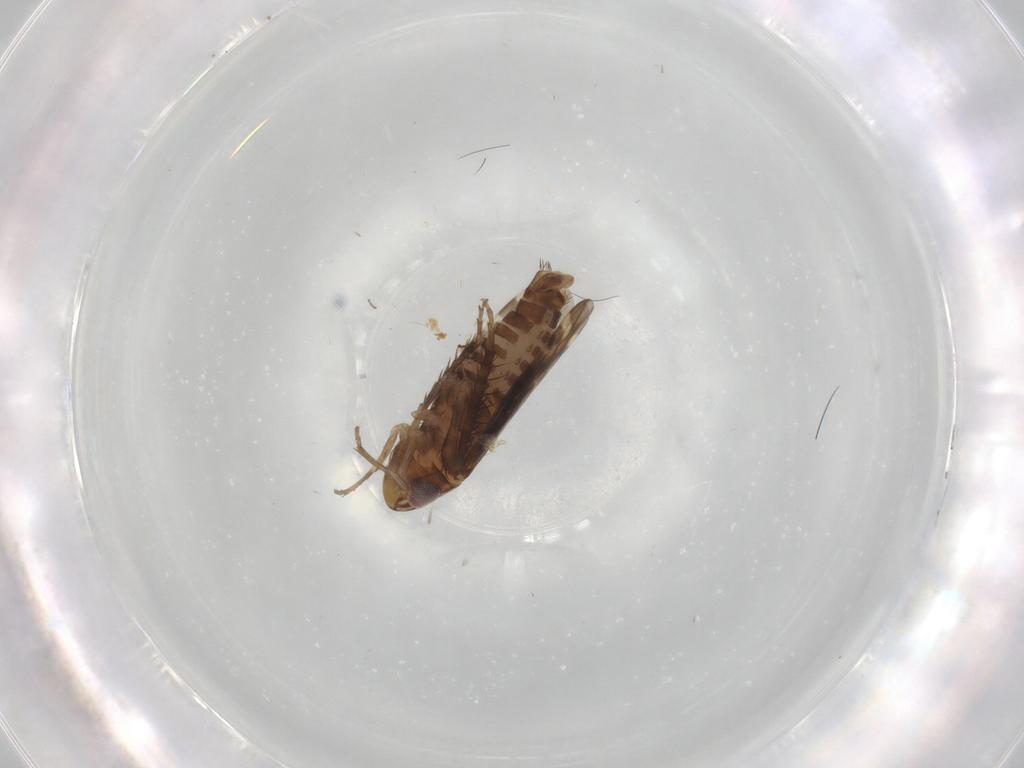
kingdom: Animalia
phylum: Arthropoda
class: Insecta
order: Hemiptera
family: Cicadellidae
